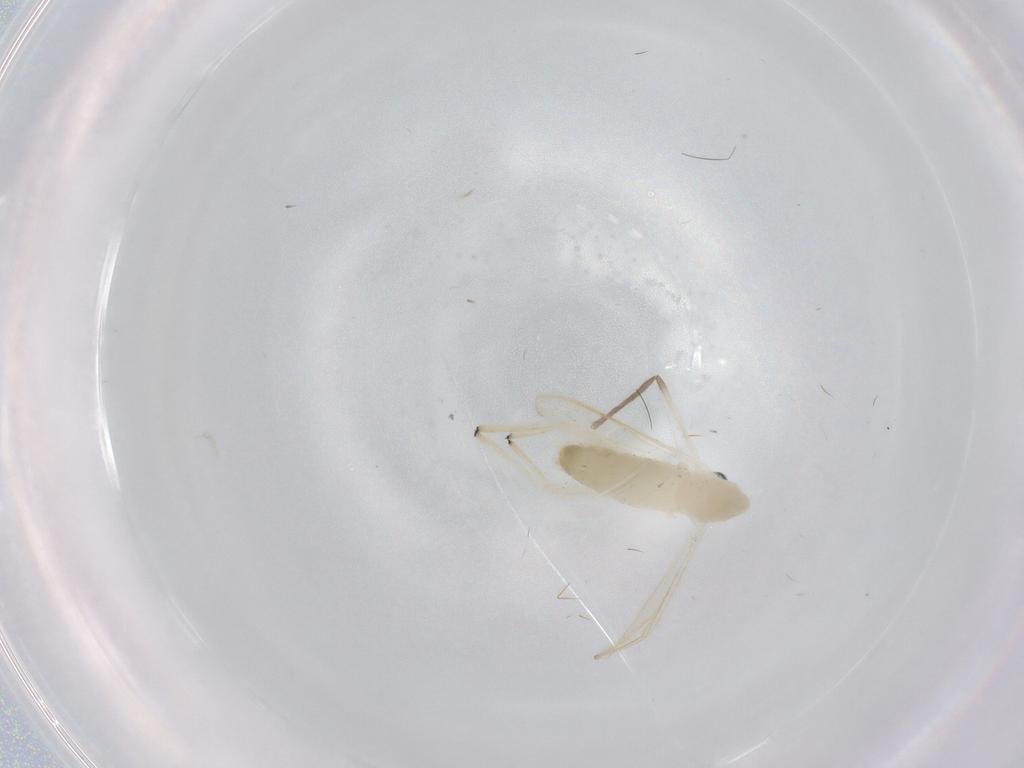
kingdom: Animalia
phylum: Arthropoda
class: Insecta
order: Diptera
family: Chironomidae
